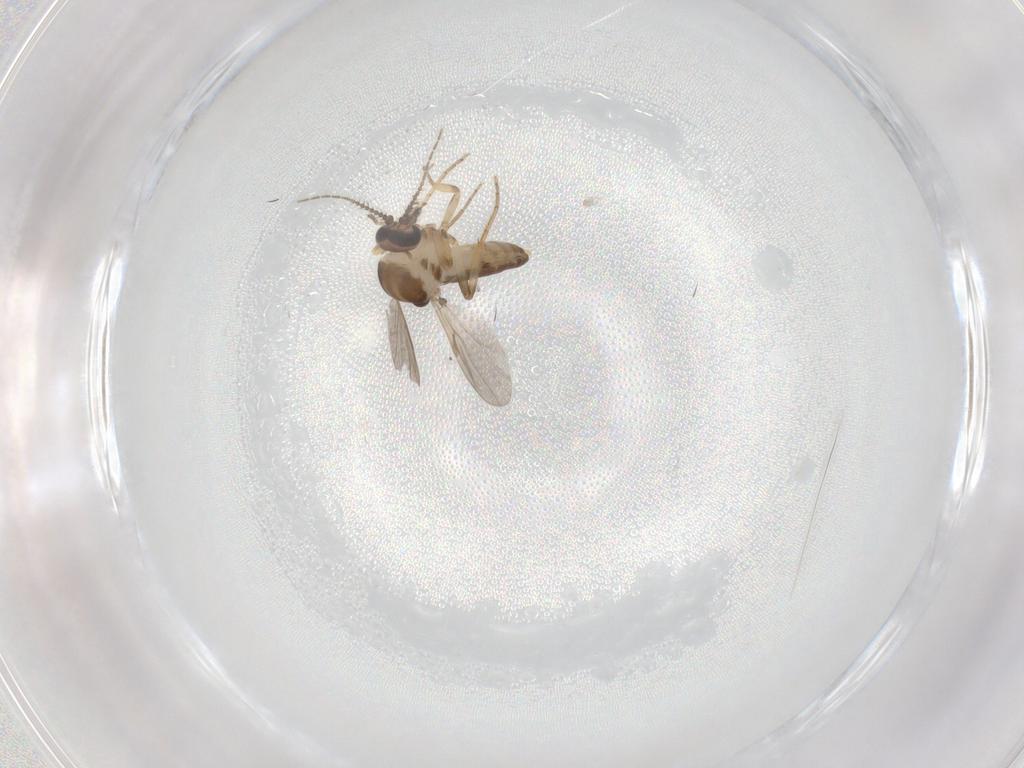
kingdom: Animalia
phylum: Arthropoda
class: Insecta
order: Diptera
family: Ceratopogonidae
